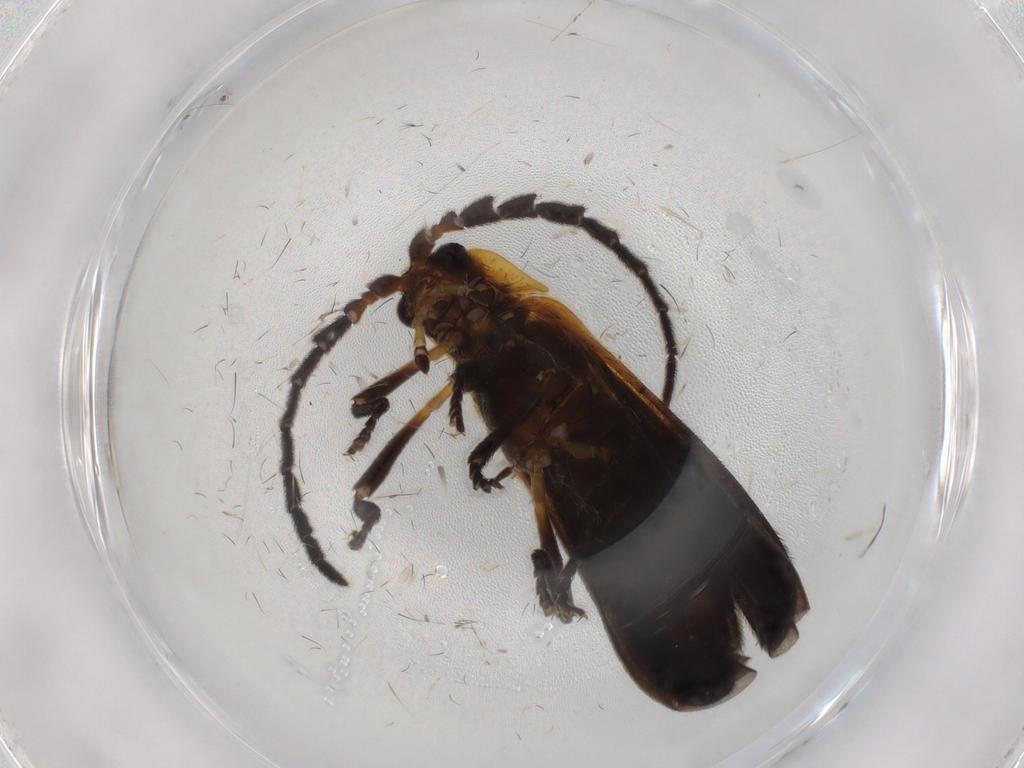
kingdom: Animalia
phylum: Arthropoda
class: Insecta
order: Coleoptera
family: Lycidae
